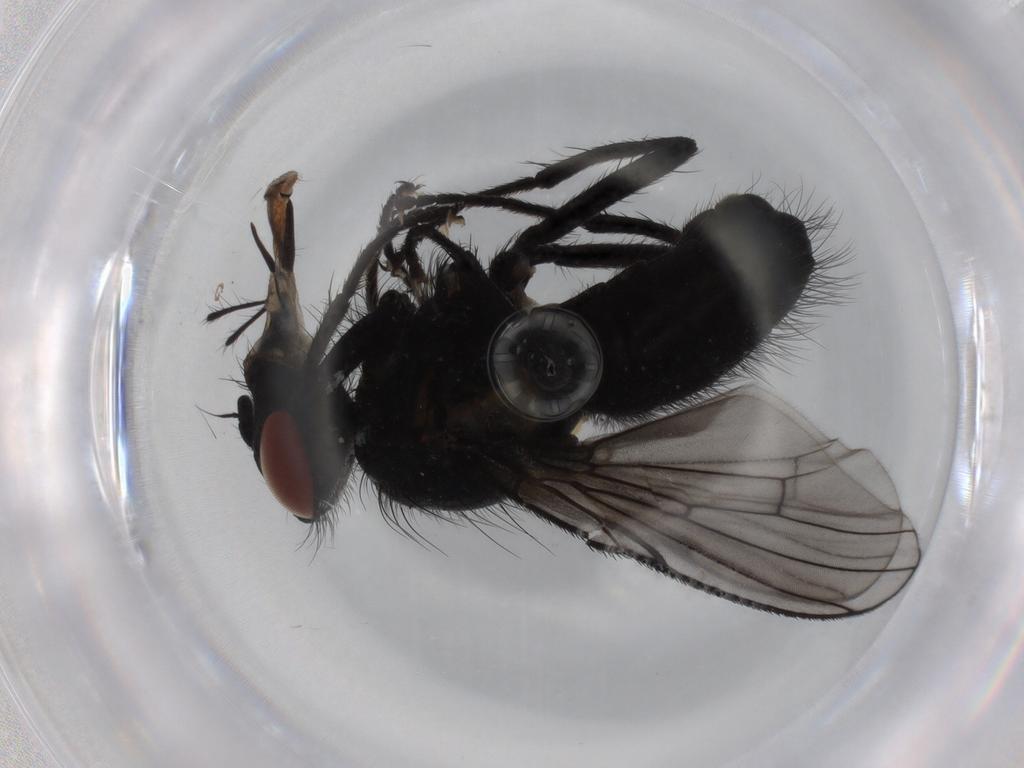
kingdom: Animalia
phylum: Arthropoda
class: Insecta
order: Diptera
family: Muscidae
